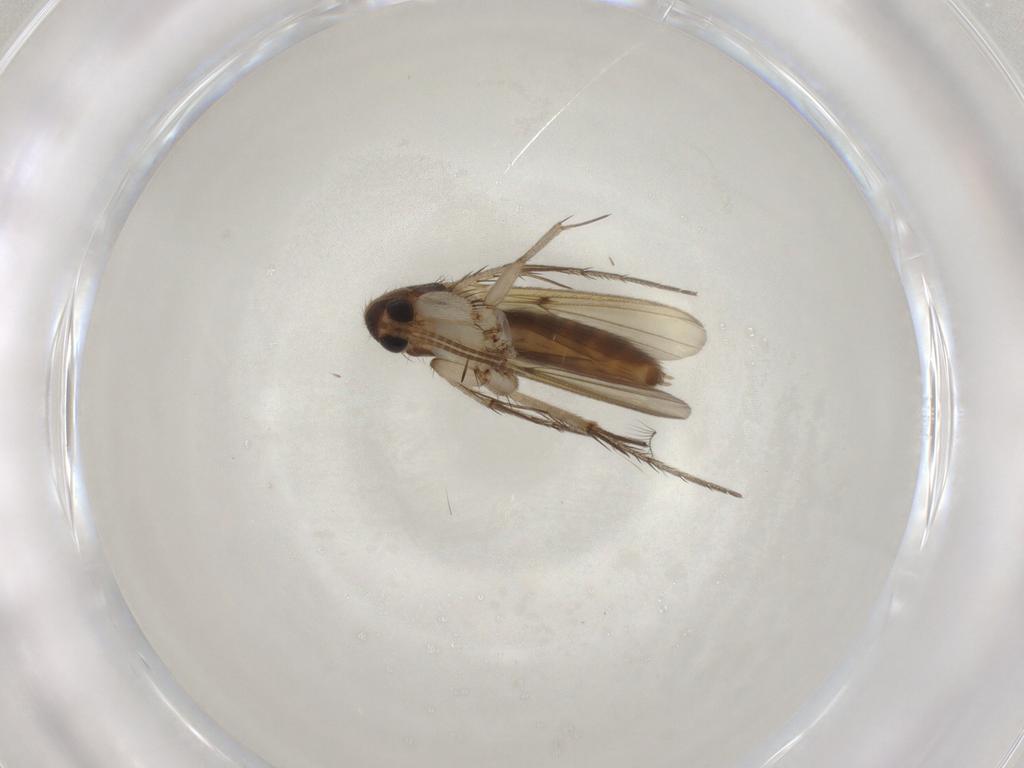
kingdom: Animalia
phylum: Arthropoda
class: Insecta
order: Diptera
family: Mycetophilidae
